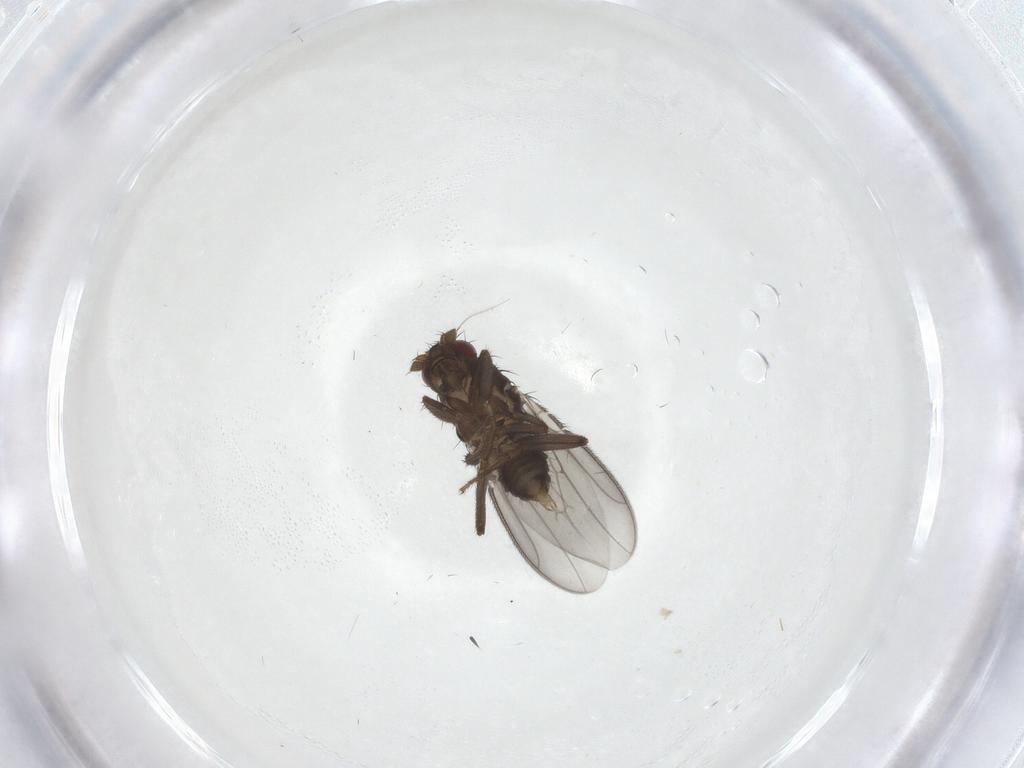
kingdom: Animalia
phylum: Arthropoda
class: Insecta
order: Diptera
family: Sphaeroceridae
